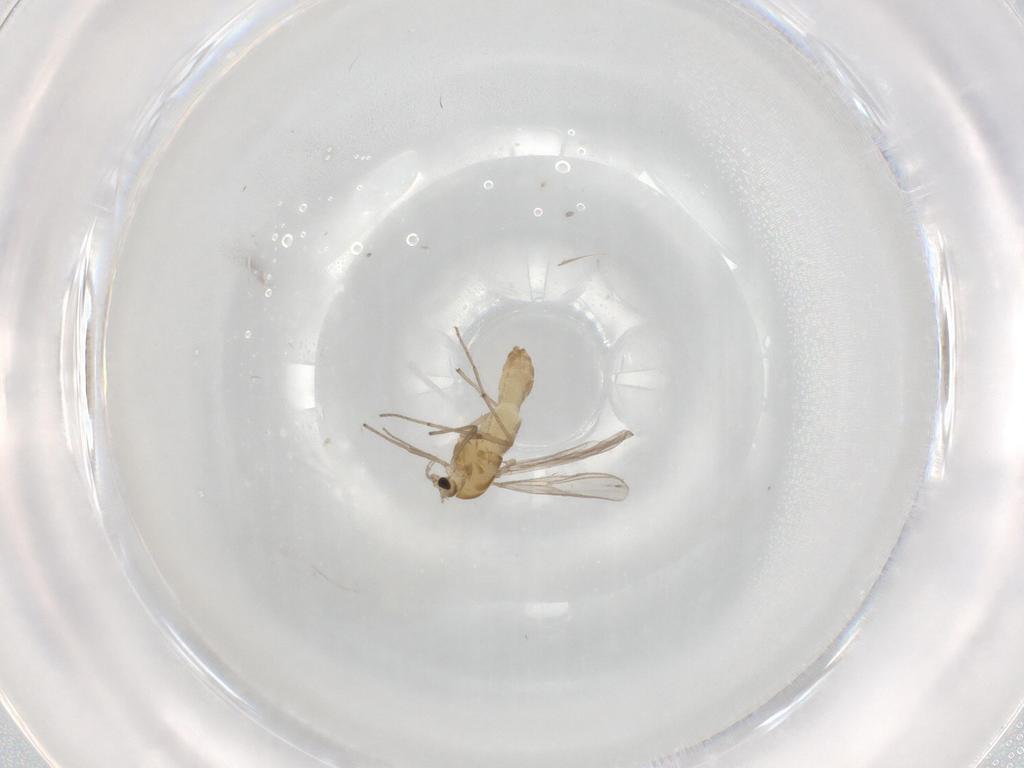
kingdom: Animalia
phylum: Arthropoda
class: Insecta
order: Diptera
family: Chironomidae
